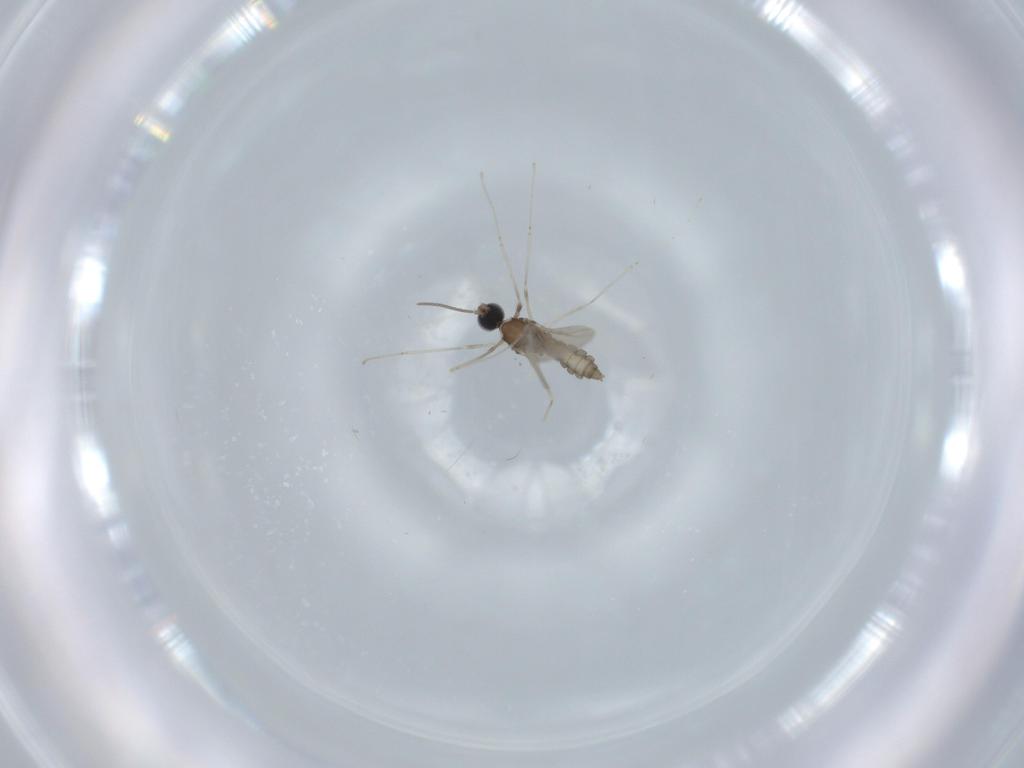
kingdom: Animalia
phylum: Arthropoda
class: Insecta
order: Diptera
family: Cecidomyiidae
